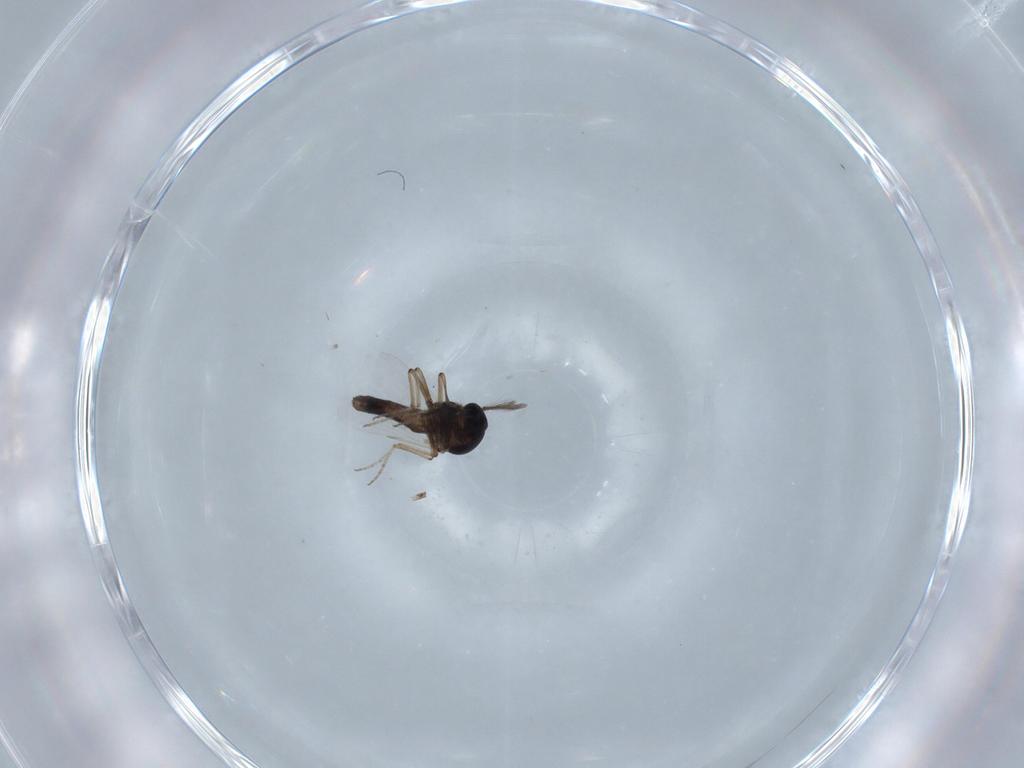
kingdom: Animalia
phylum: Arthropoda
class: Insecta
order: Diptera
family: Ceratopogonidae
